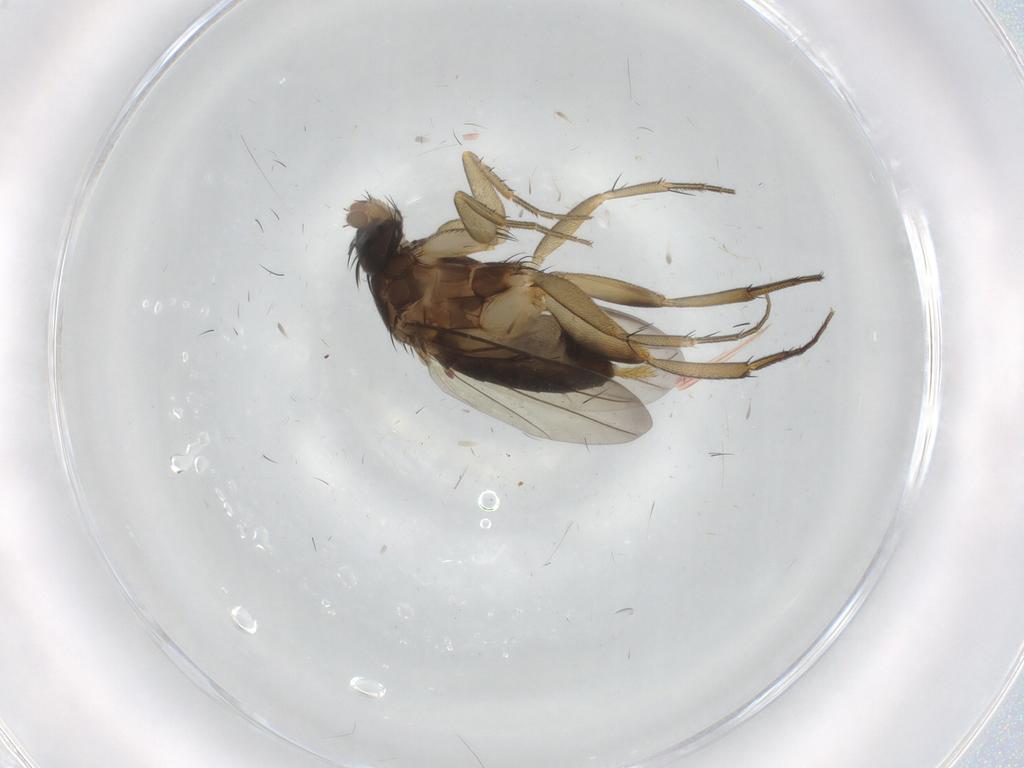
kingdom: Animalia
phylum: Arthropoda
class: Insecta
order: Diptera
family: Phoridae
